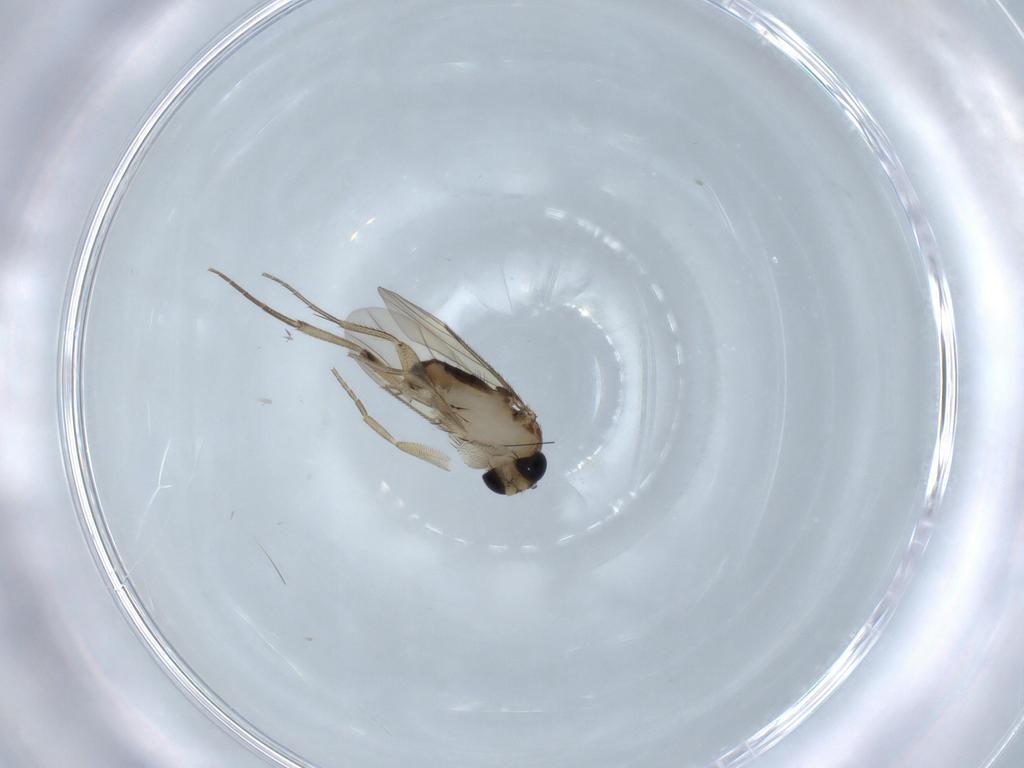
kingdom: Animalia
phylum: Arthropoda
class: Insecta
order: Diptera
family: Phoridae
